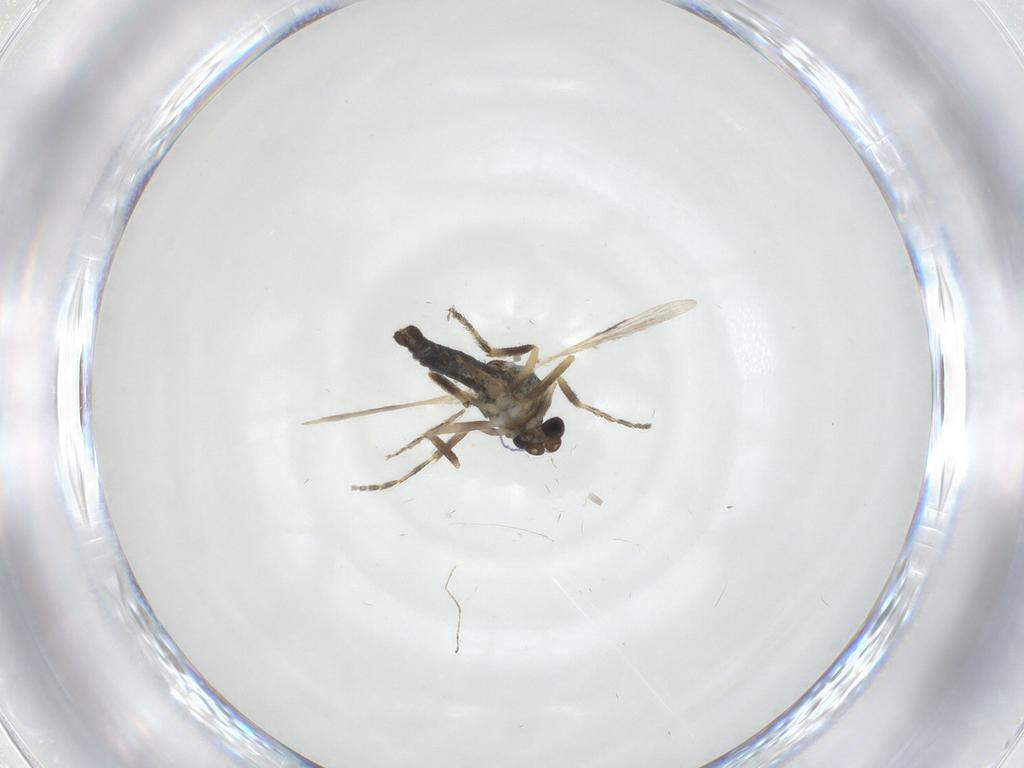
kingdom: Animalia
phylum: Arthropoda
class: Insecta
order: Diptera
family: Ceratopogonidae
